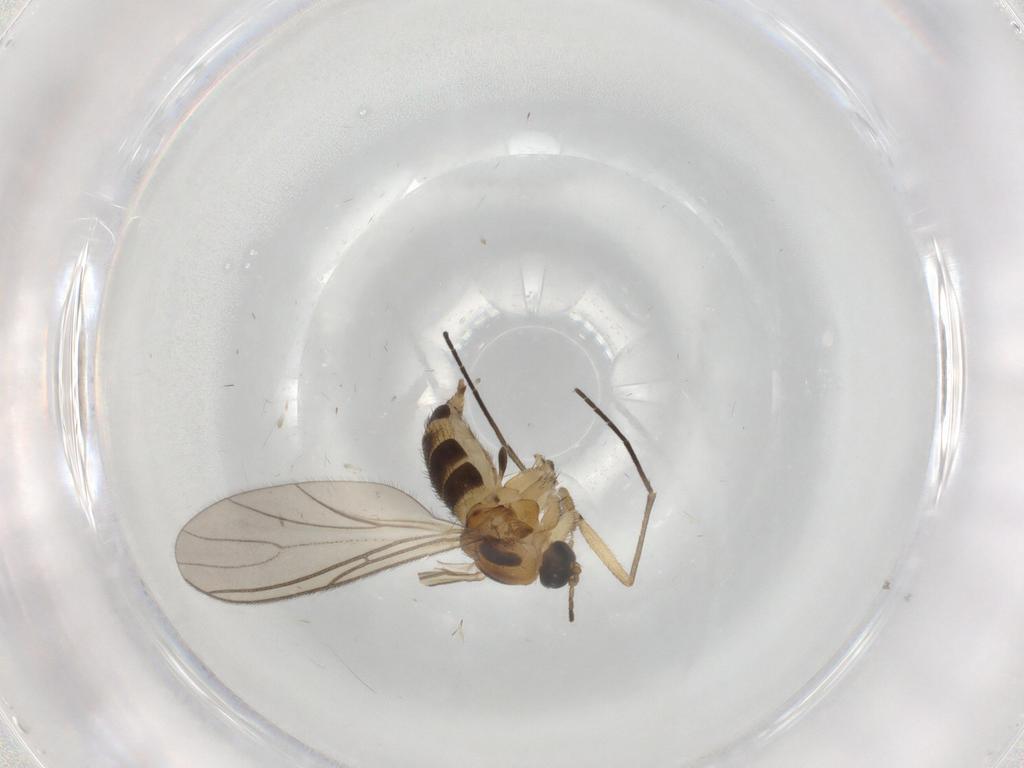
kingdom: Animalia
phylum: Arthropoda
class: Insecta
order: Diptera
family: Sciaridae
